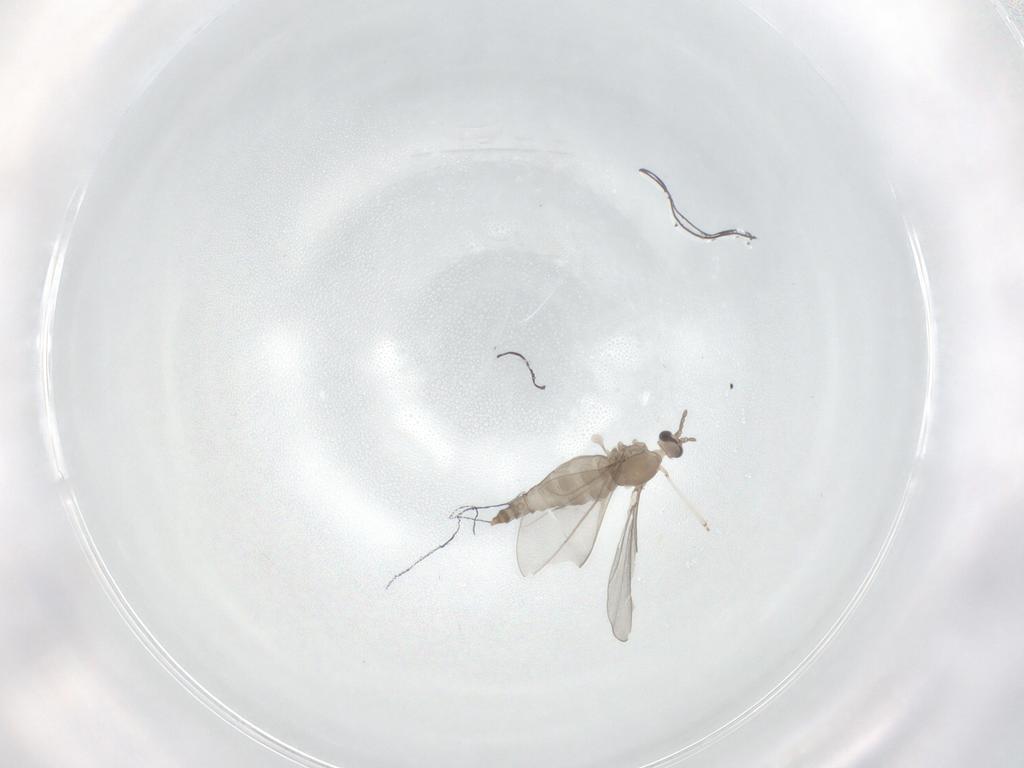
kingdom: Animalia
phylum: Arthropoda
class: Insecta
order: Diptera
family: Cecidomyiidae
